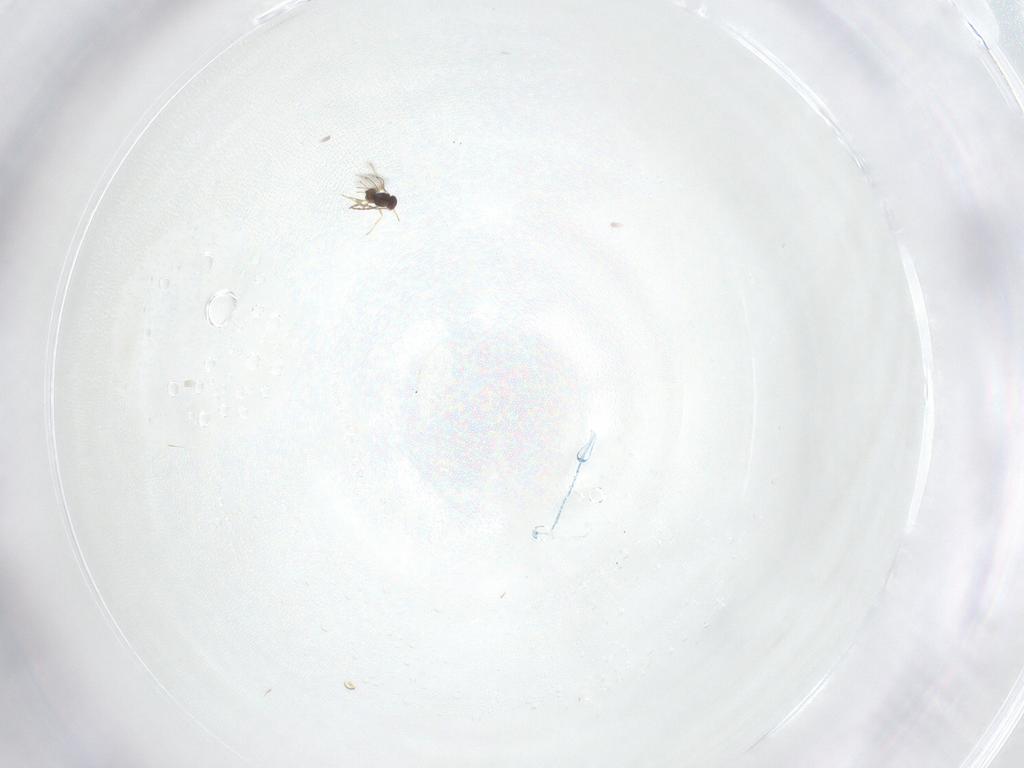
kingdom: Animalia
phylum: Arthropoda
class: Insecta
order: Hymenoptera
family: Mymaridae
